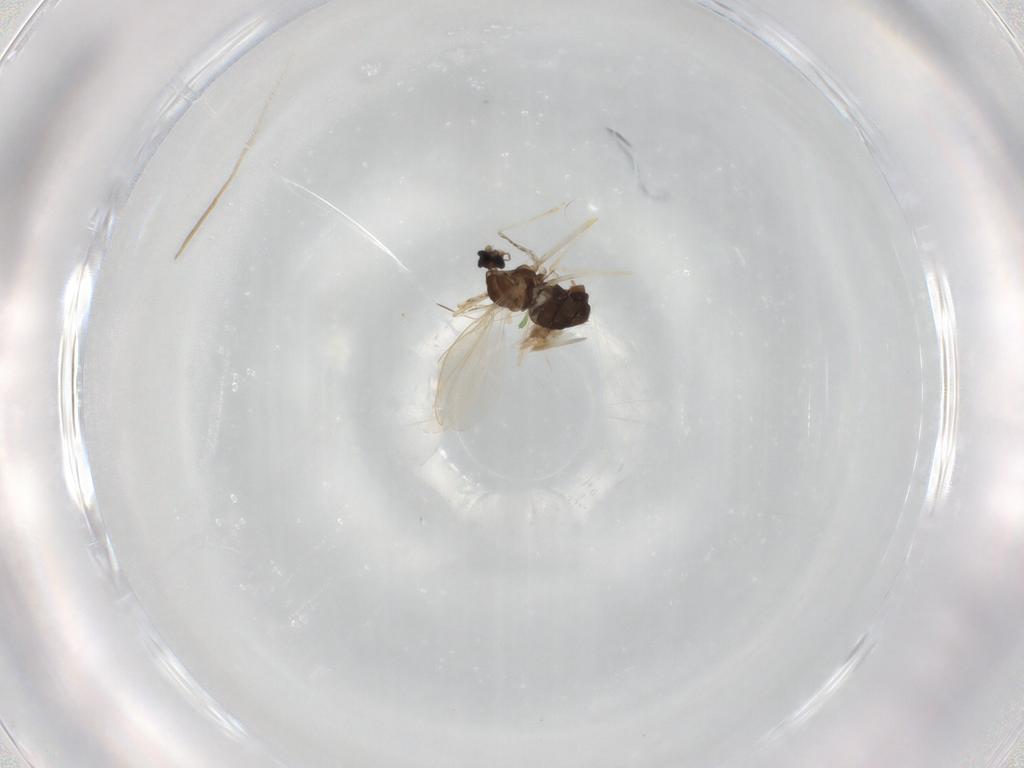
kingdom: Animalia
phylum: Arthropoda
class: Insecta
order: Diptera
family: Cecidomyiidae
